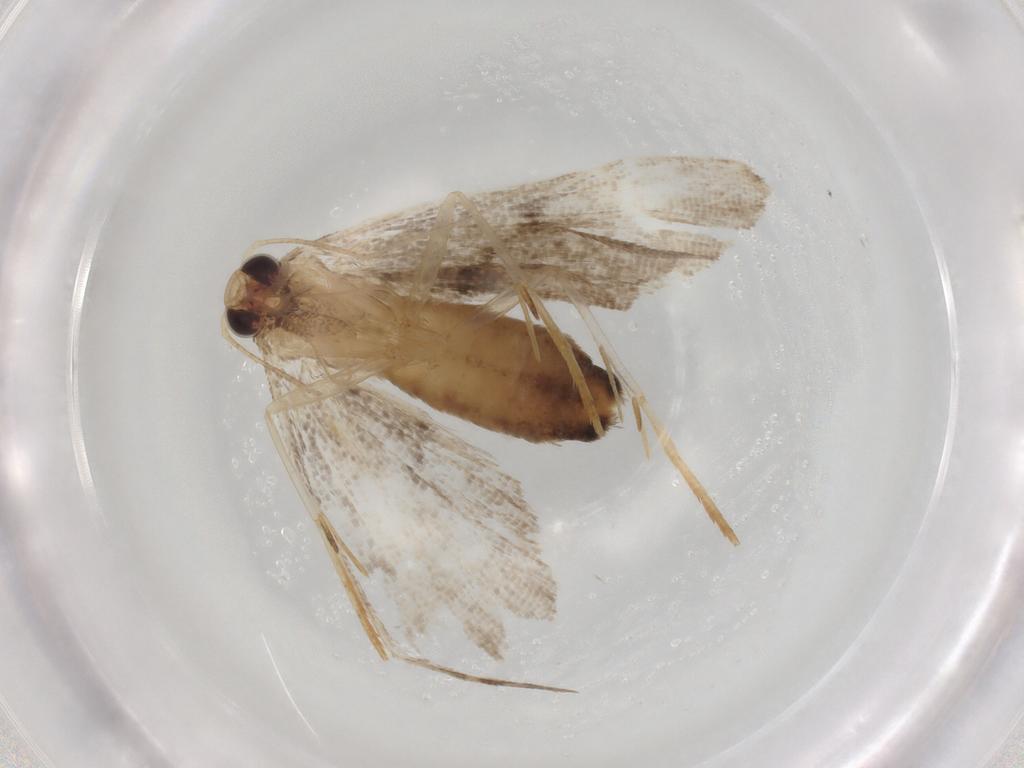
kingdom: Animalia
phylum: Arthropoda
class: Insecta
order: Lepidoptera
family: Noctuidae
